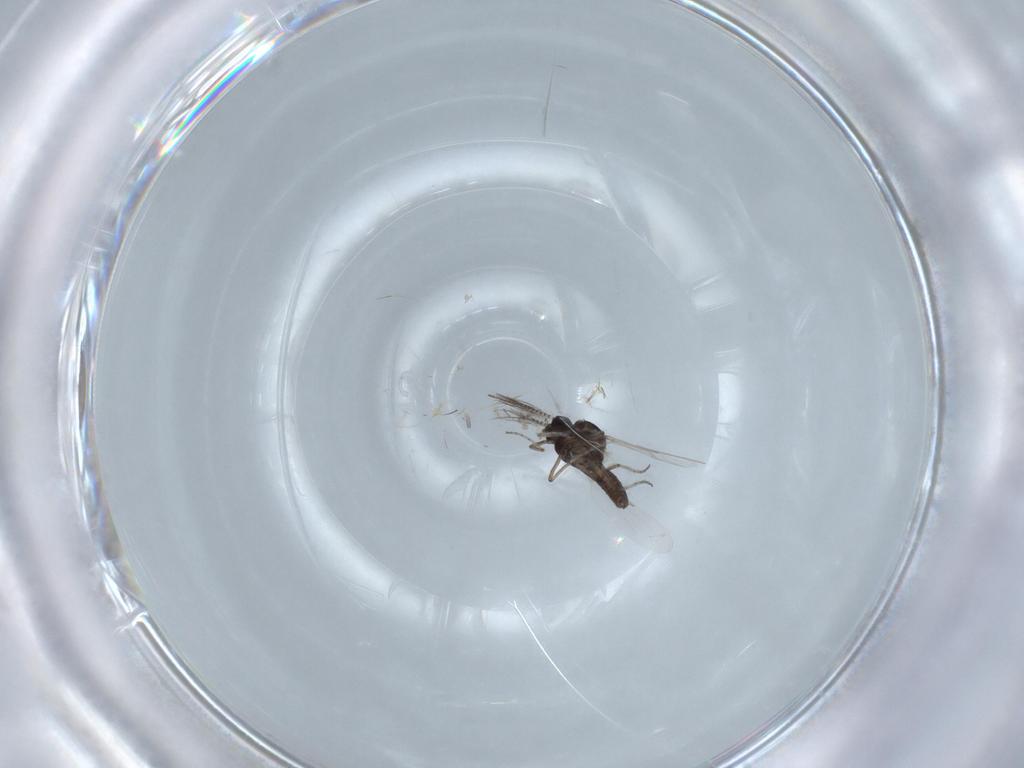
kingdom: Animalia
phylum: Arthropoda
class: Insecta
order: Diptera
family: Ceratopogonidae
